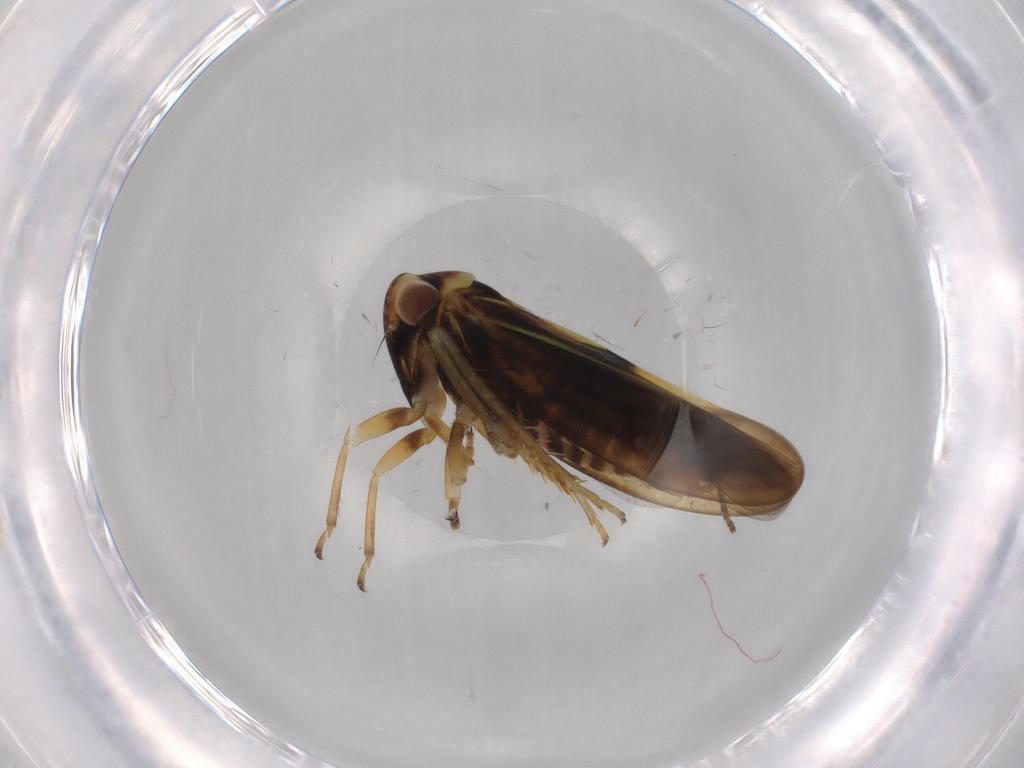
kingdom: Animalia
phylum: Arthropoda
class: Insecta
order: Hemiptera
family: Cicadellidae
